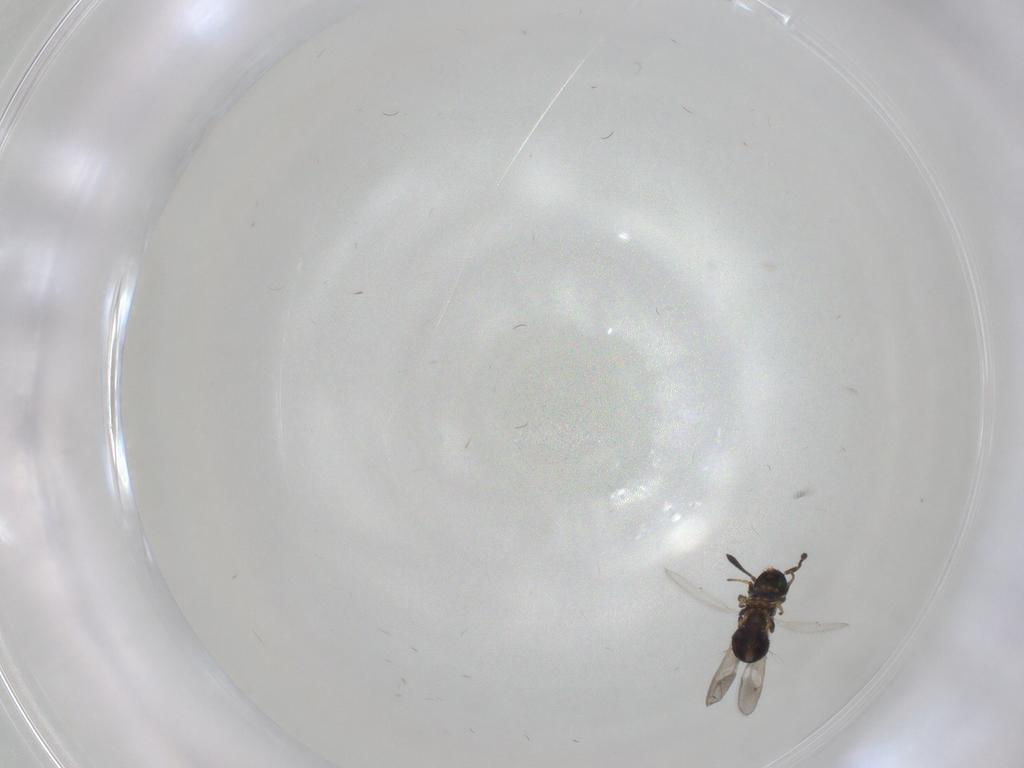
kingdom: Animalia
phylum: Arthropoda
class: Insecta
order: Hymenoptera
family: Eupelmidae
